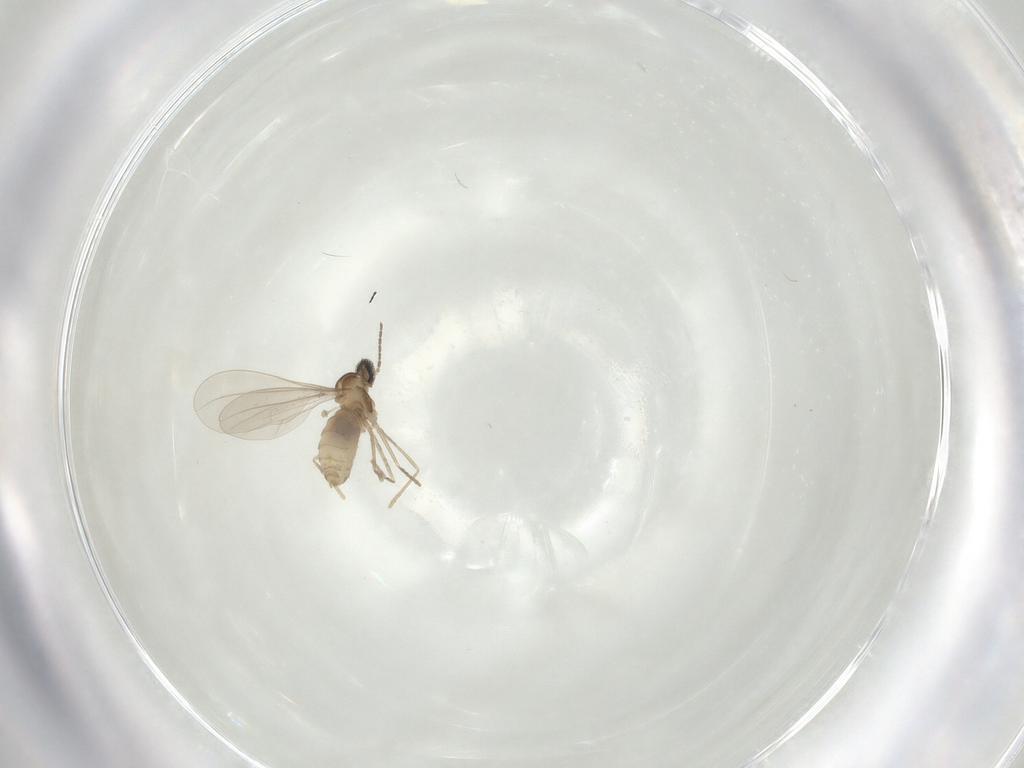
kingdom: Animalia
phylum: Arthropoda
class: Insecta
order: Diptera
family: Cecidomyiidae
